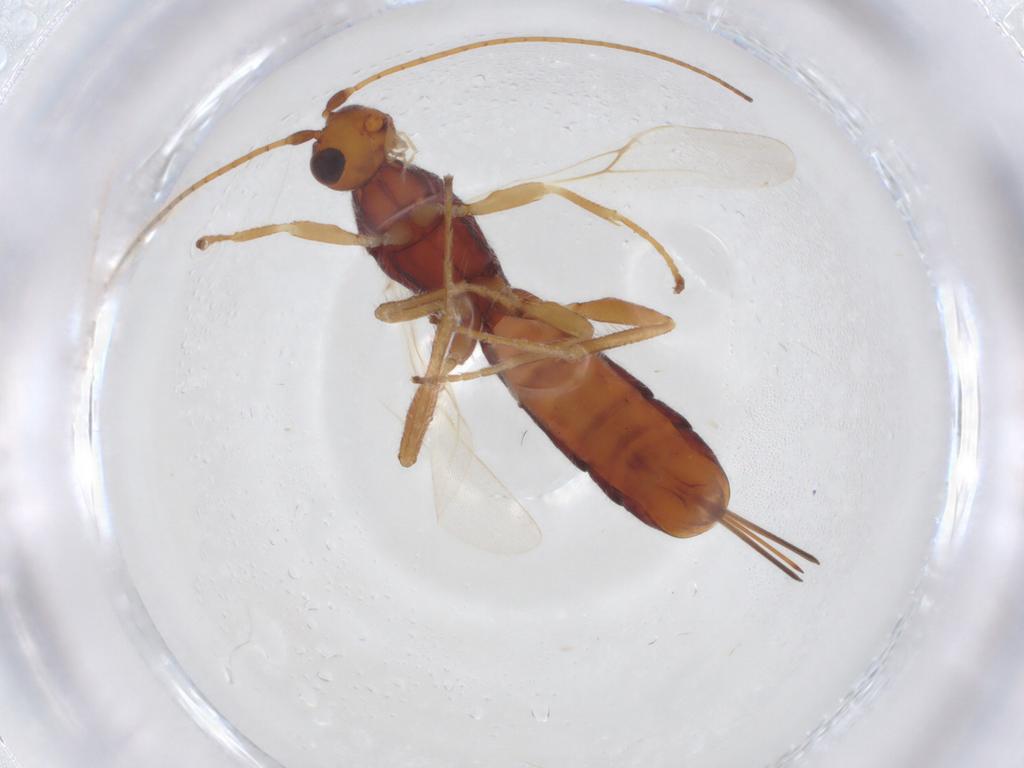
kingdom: Animalia
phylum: Arthropoda
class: Insecta
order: Hymenoptera
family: Braconidae
